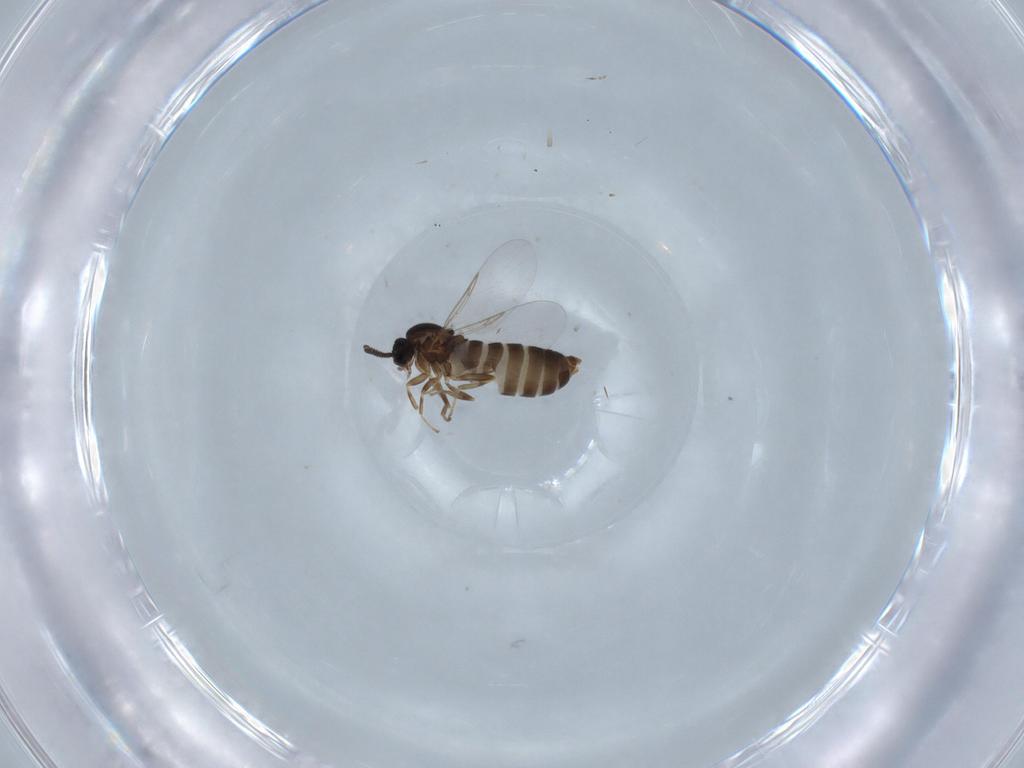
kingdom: Animalia
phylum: Arthropoda
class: Insecta
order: Diptera
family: Scatopsidae
